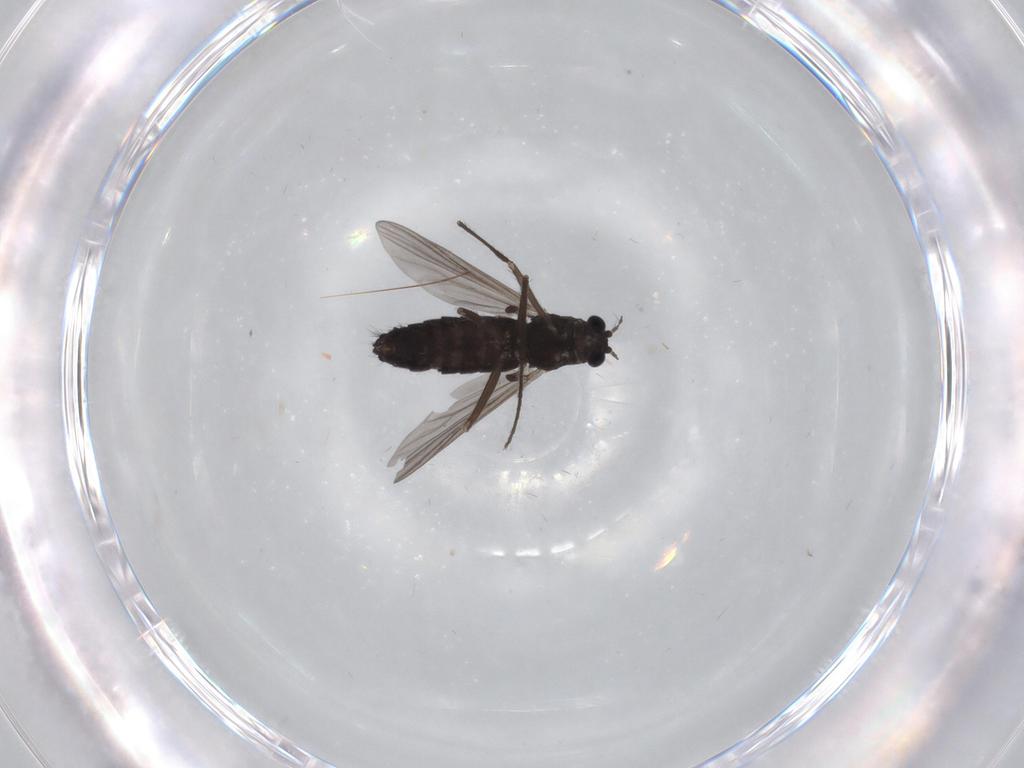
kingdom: Animalia
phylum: Arthropoda
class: Insecta
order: Diptera
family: Chironomidae
